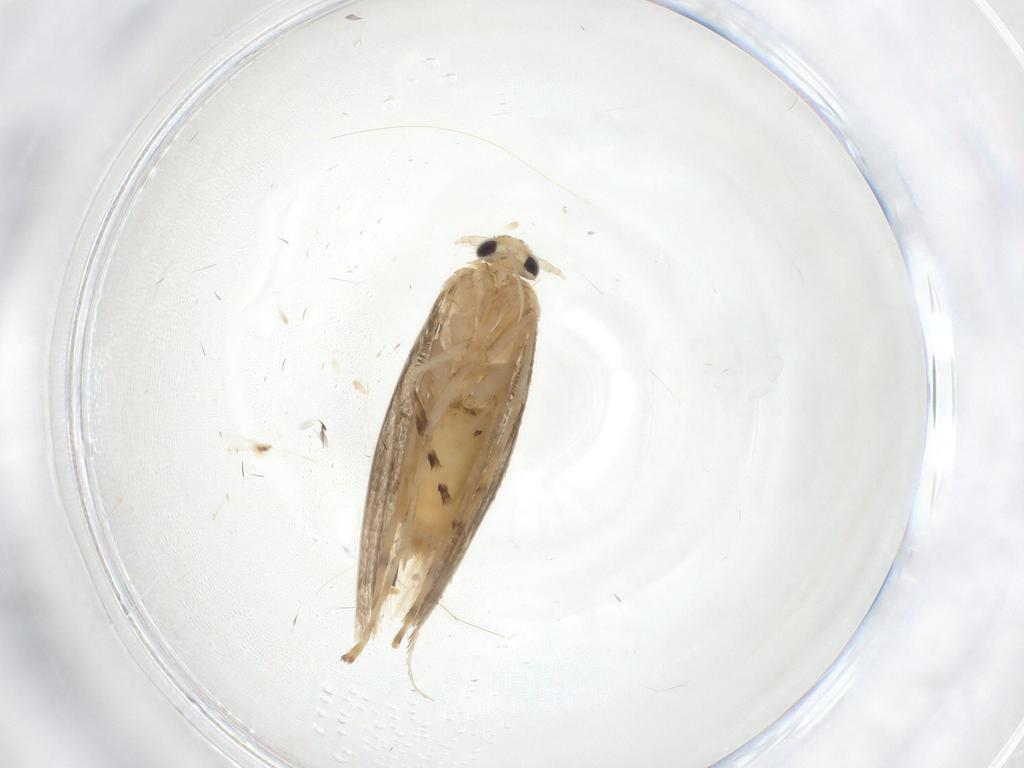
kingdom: Animalia
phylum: Arthropoda
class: Insecta
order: Lepidoptera
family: Gracillariidae
